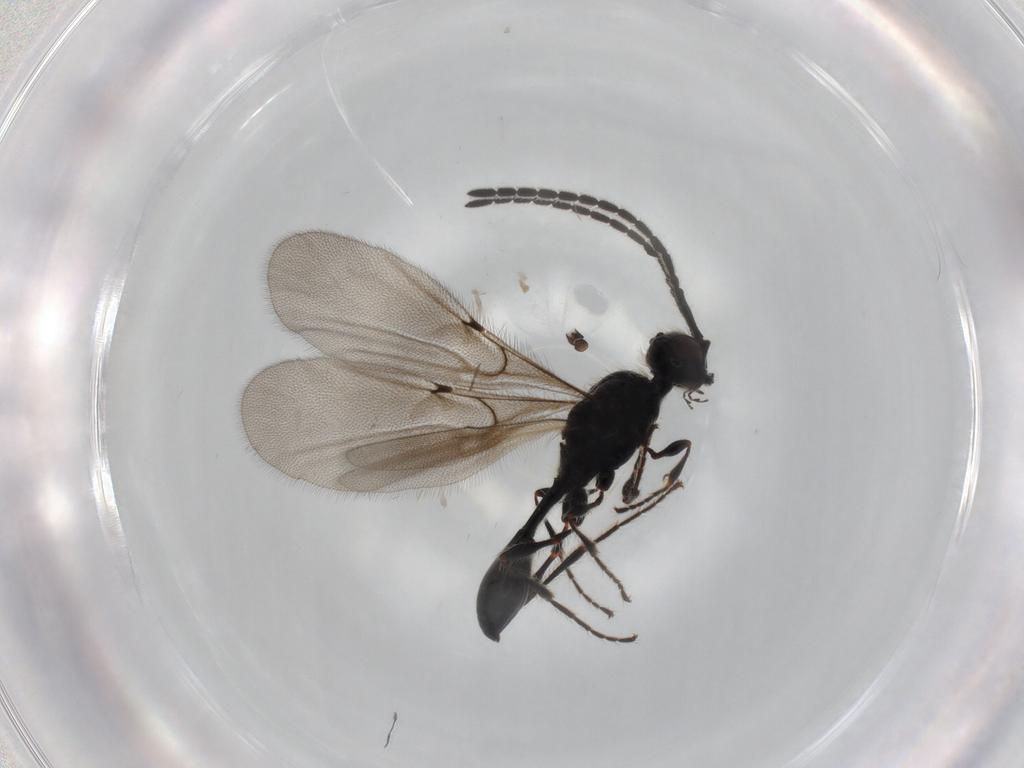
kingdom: Animalia
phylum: Arthropoda
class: Insecta
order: Hymenoptera
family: Diapriidae
